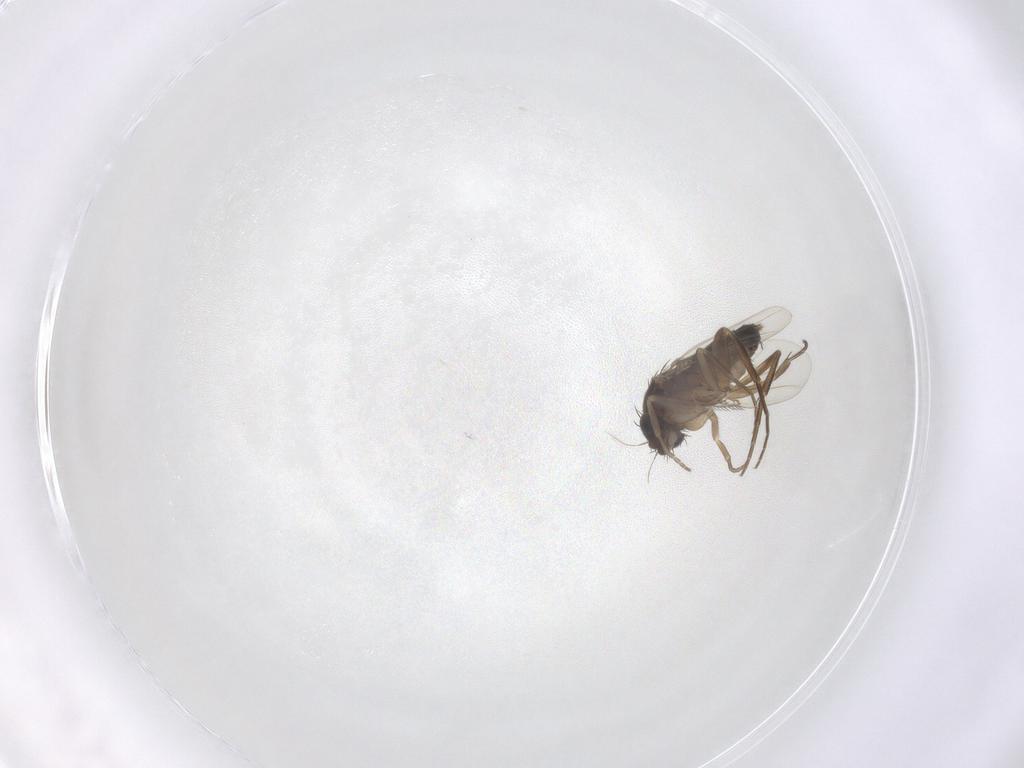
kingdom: Animalia
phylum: Arthropoda
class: Insecta
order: Diptera
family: Phoridae
